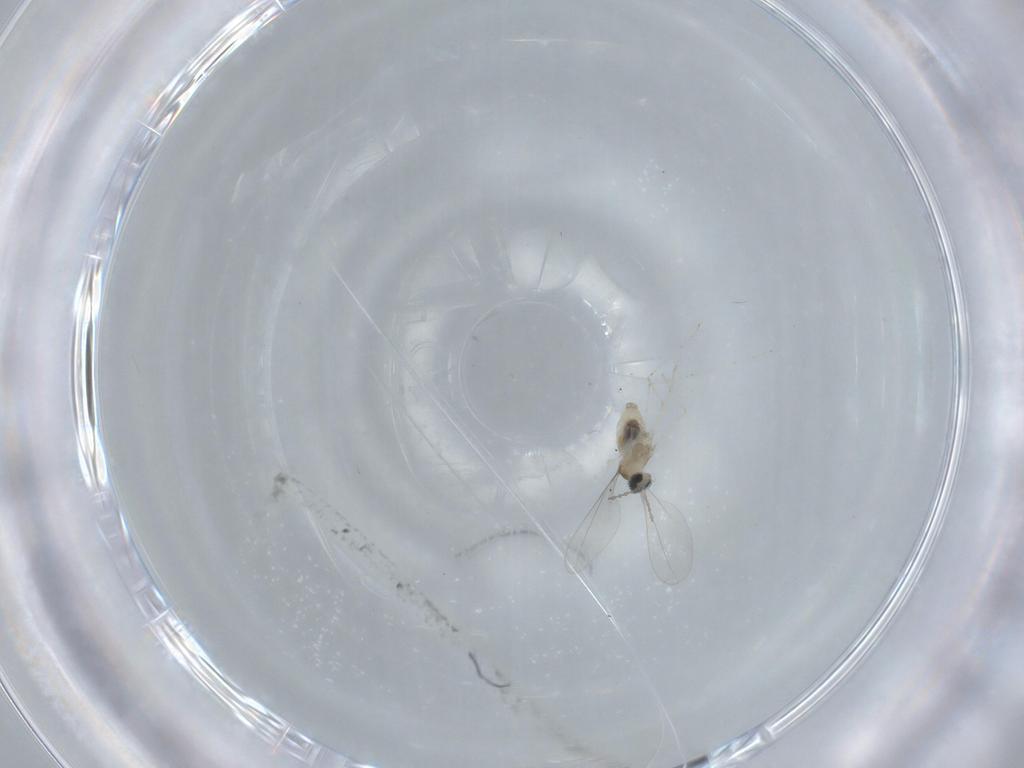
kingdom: Animalia
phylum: Arthropoda
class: Insecta
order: Diptera
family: Cecidomyiidae
